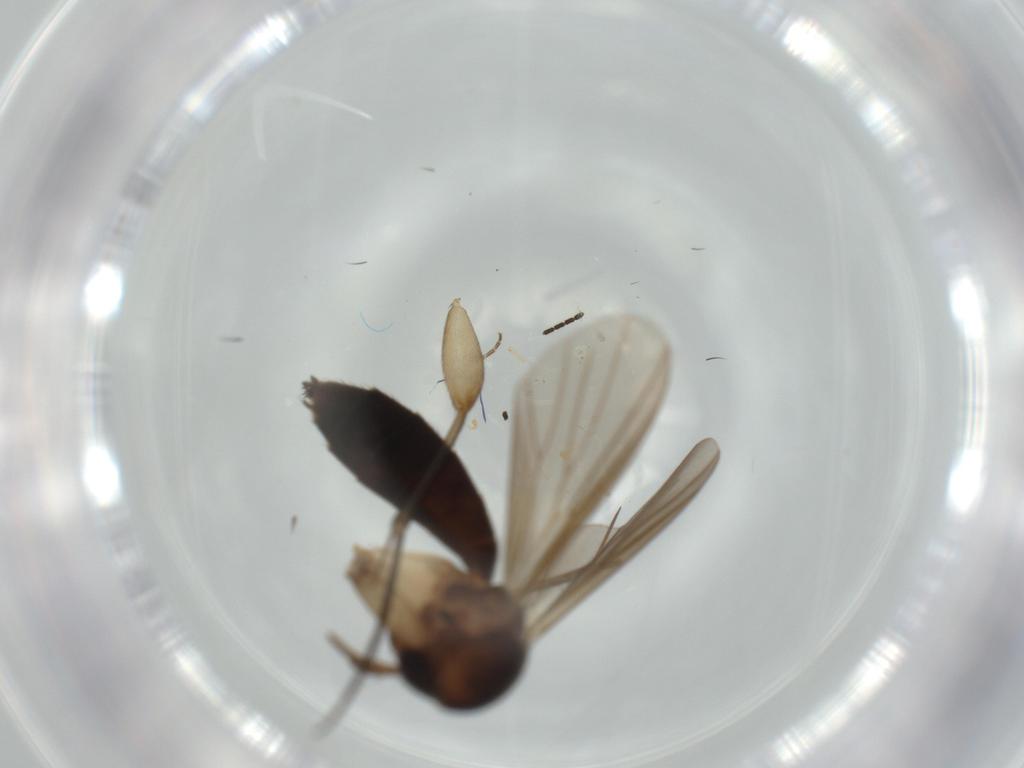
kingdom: Animalia
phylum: Arthropoda
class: Insecta
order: Diptera
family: Mycetophilidae
